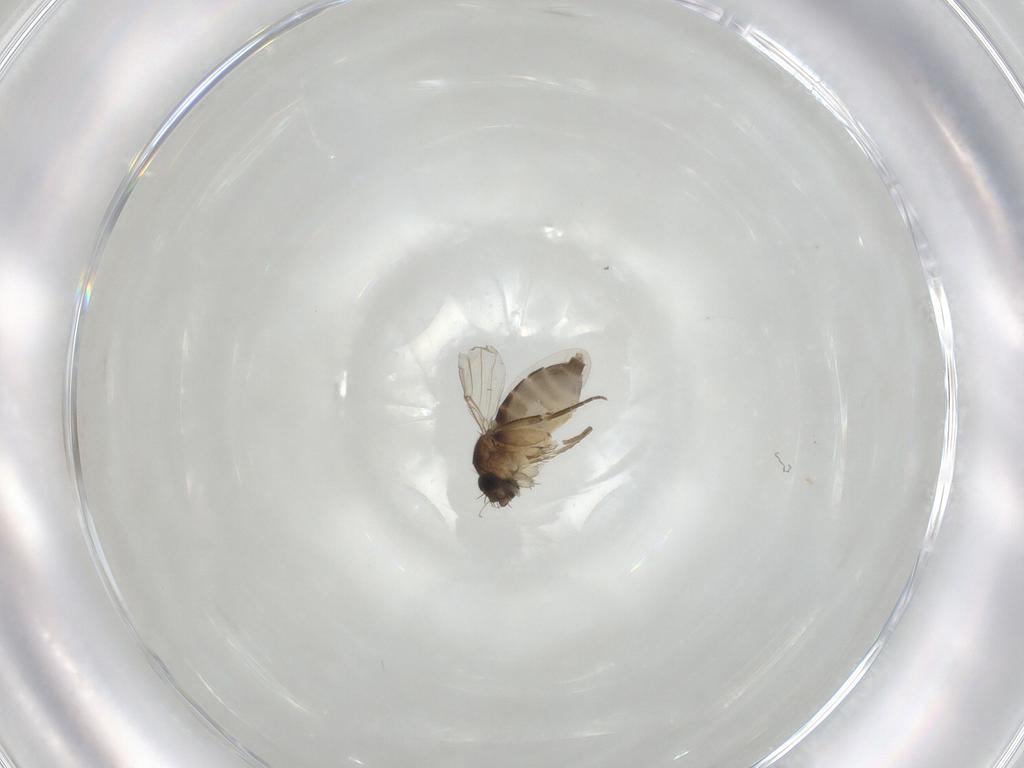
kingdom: Animalia
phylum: Arthropoda
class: Insecta
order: Diptera
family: Phoridae
